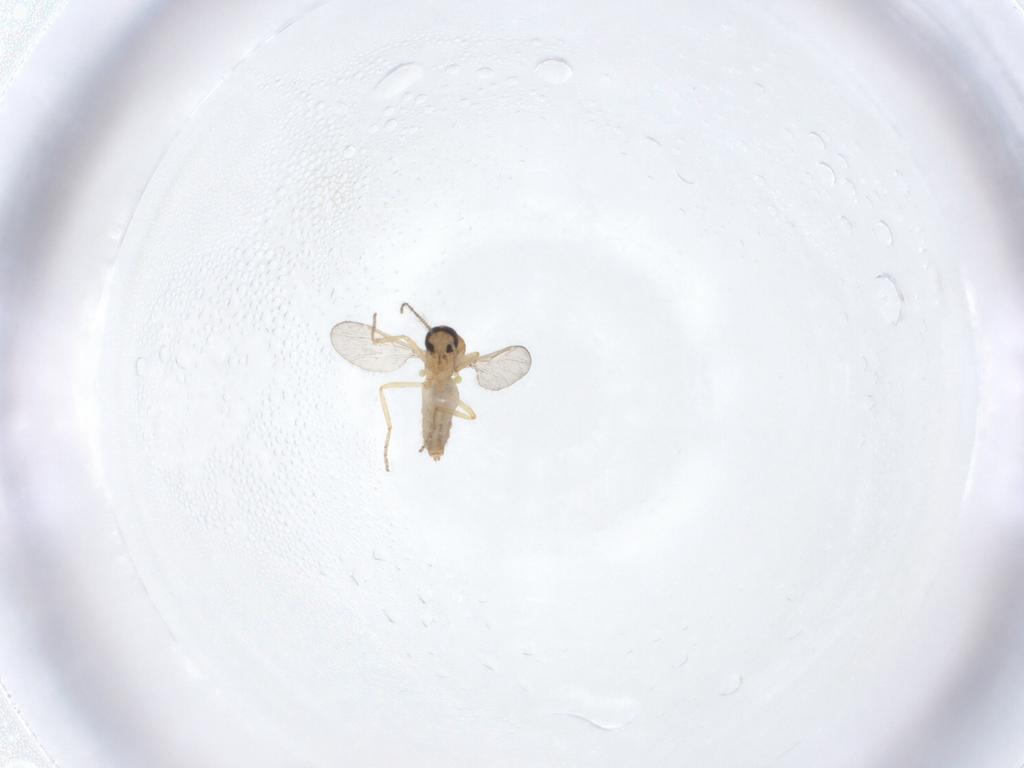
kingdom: Animalia
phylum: Arthropoda
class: Insecta
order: Diptera
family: Ceratopogonidae
